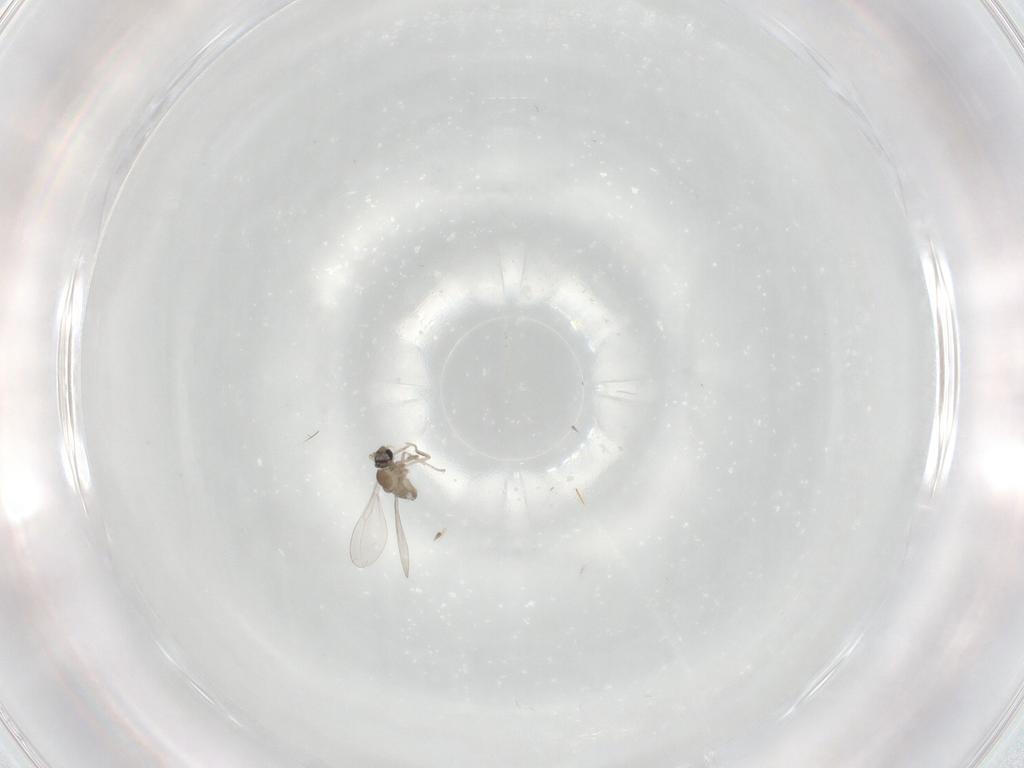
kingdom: Animalia
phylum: Arthropoda
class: Insecta
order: Diptera
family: Cecidomyiidae
